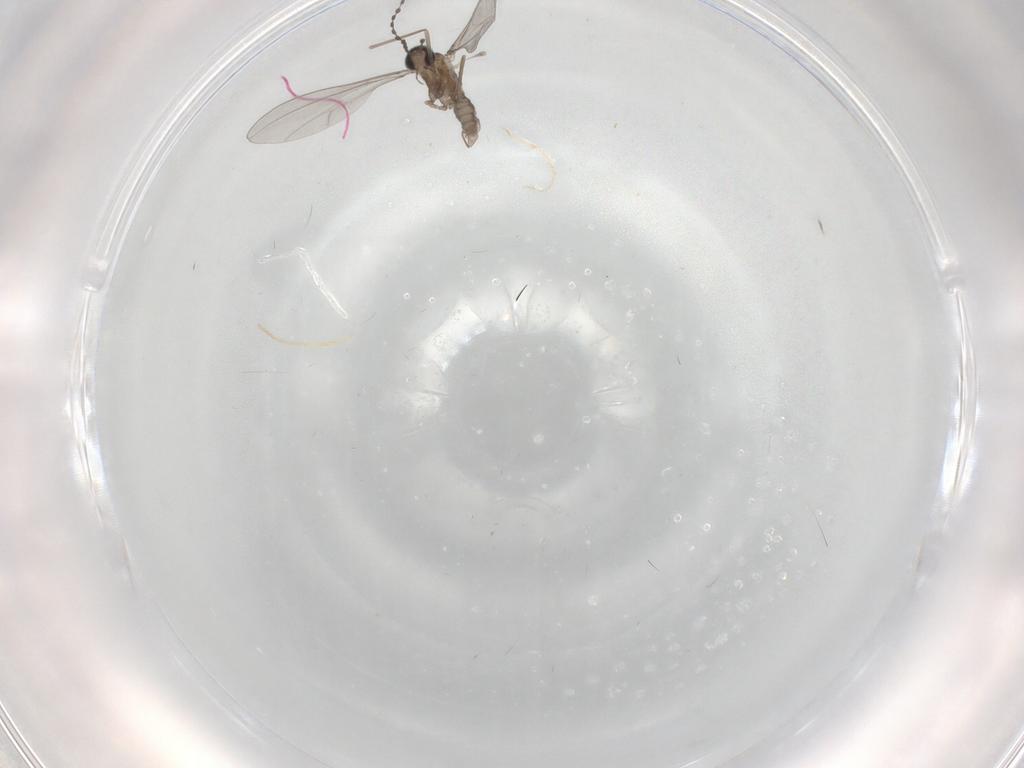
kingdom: Animalia
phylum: Arthropoda
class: Insecta
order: Diptera
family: Cecidomyiidae
